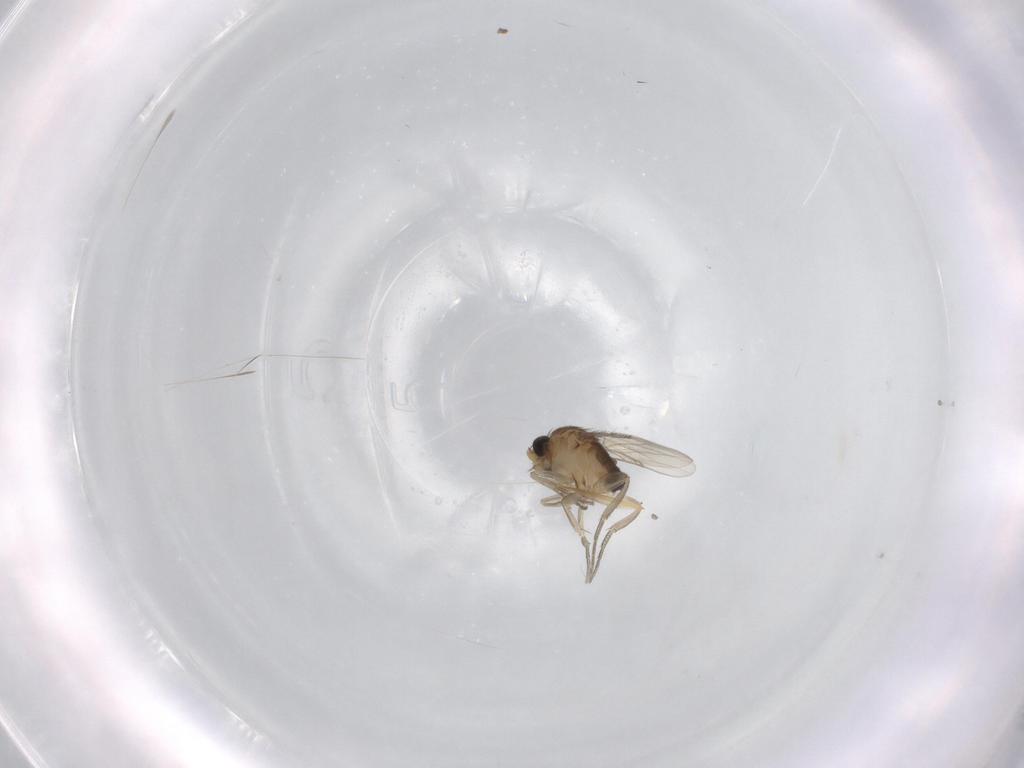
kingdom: Animalia
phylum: Arthropoda
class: Insecta
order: Diptera
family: Phoridae
